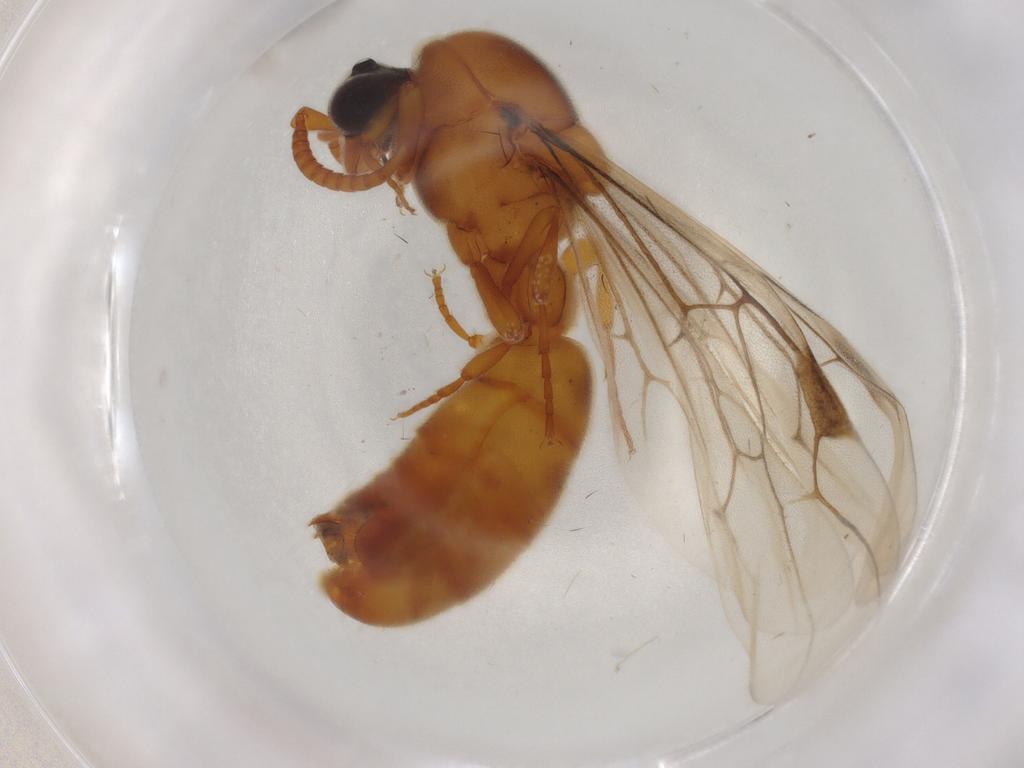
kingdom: Animalia
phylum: Arthropoda
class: Insecta
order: Hymenoptera
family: Formicidae
